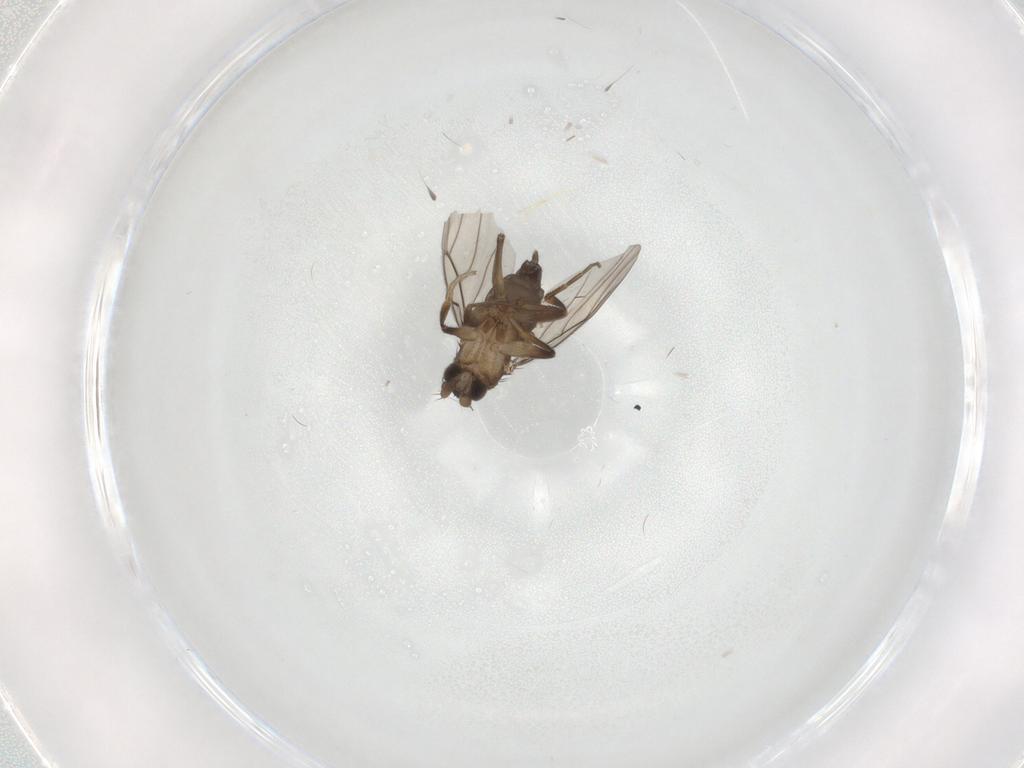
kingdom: Animalia
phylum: Arthropoda
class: Insecta
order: Diptera
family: Phoridae
